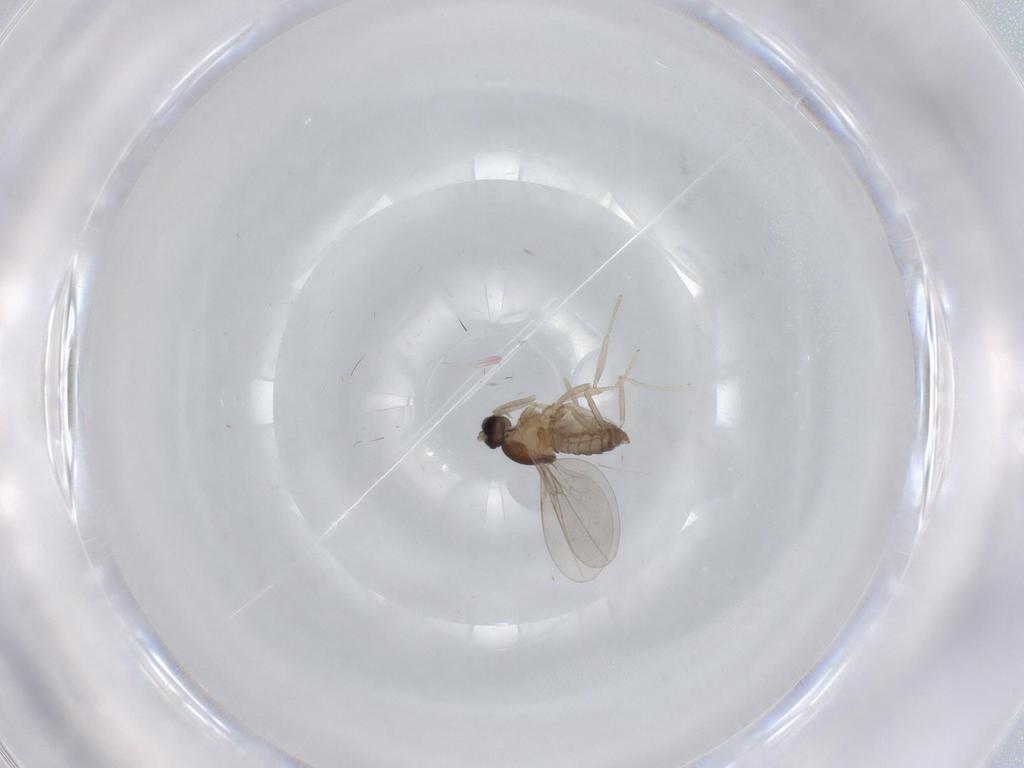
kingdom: Animalia
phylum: Arthropoda
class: Insecta
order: Diptera
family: Cecidomyiidae
